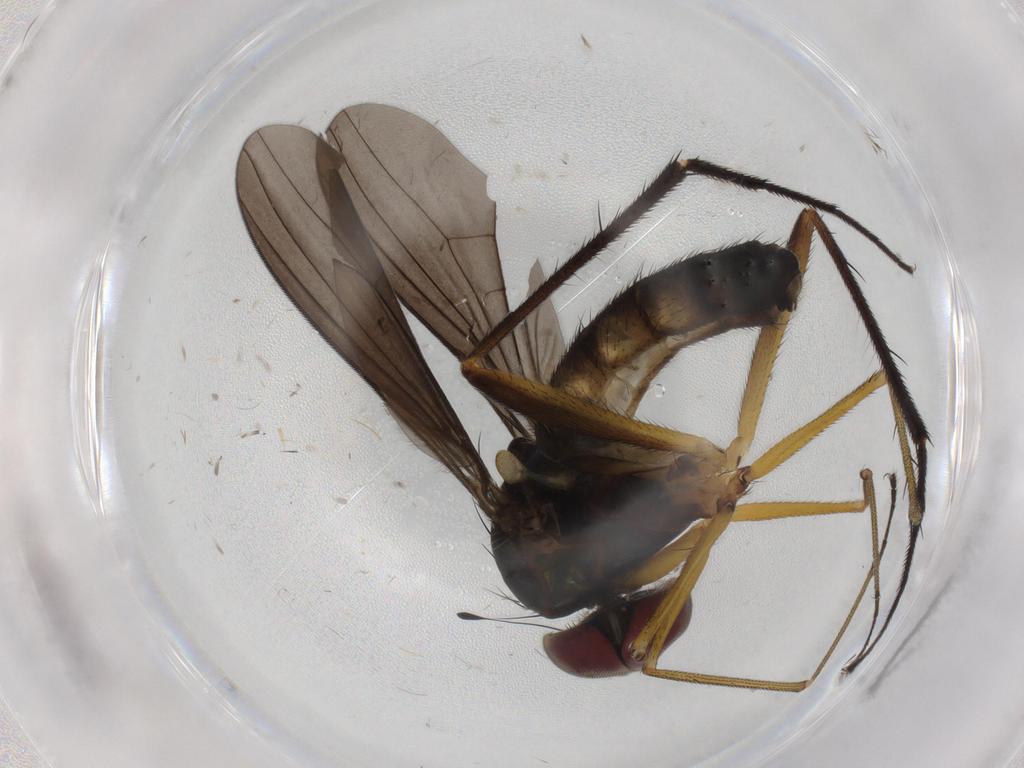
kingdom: Animalia
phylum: Arthropoda
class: Insecta
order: Diptera
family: Dolichopodidae
